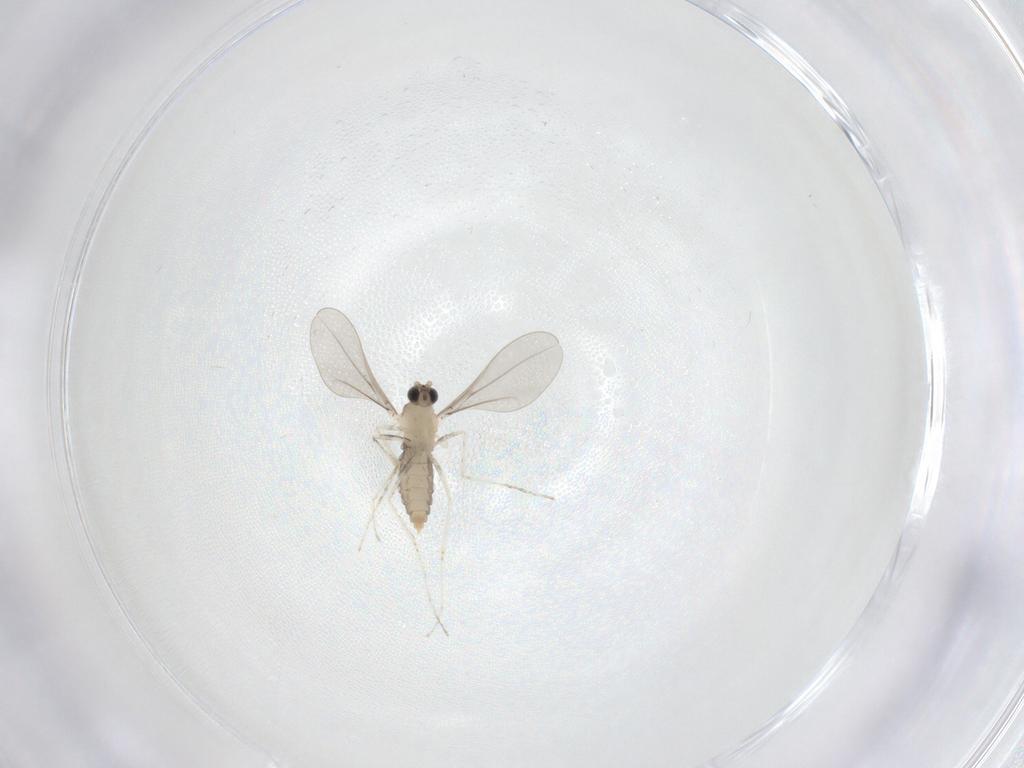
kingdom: Animalia
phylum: Arthropoda
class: Insecta
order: Diptera
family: Limoniidae
